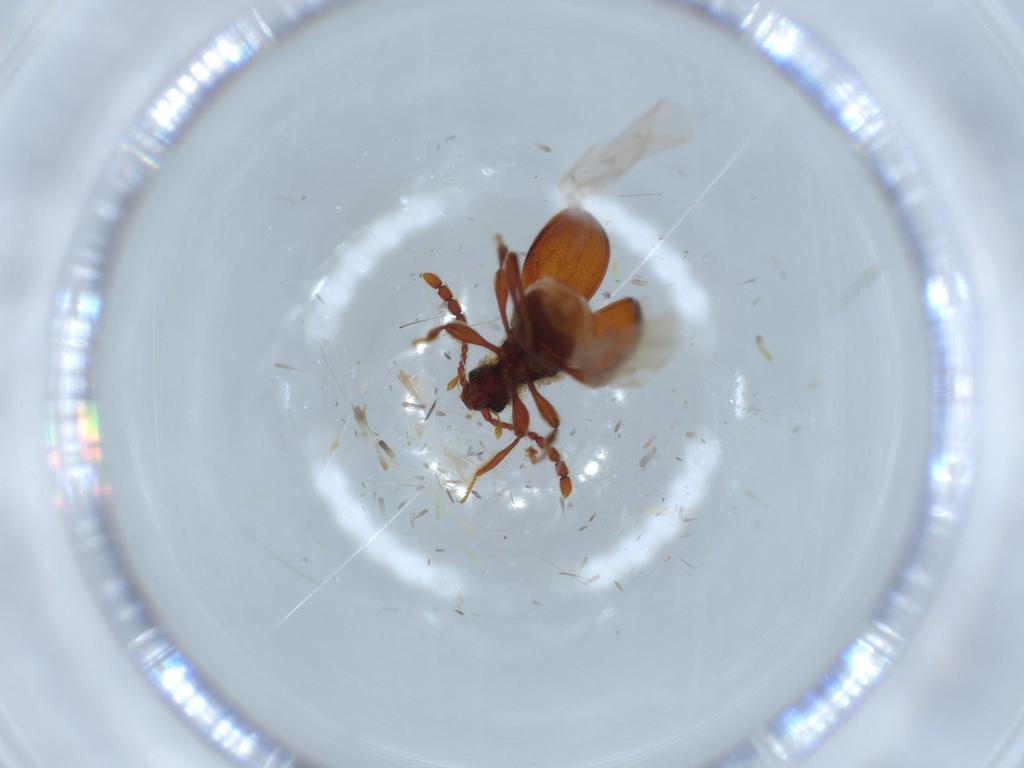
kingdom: Animalia
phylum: Arthropoda
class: Insecta
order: Coleoptera
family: Staphylinidae
